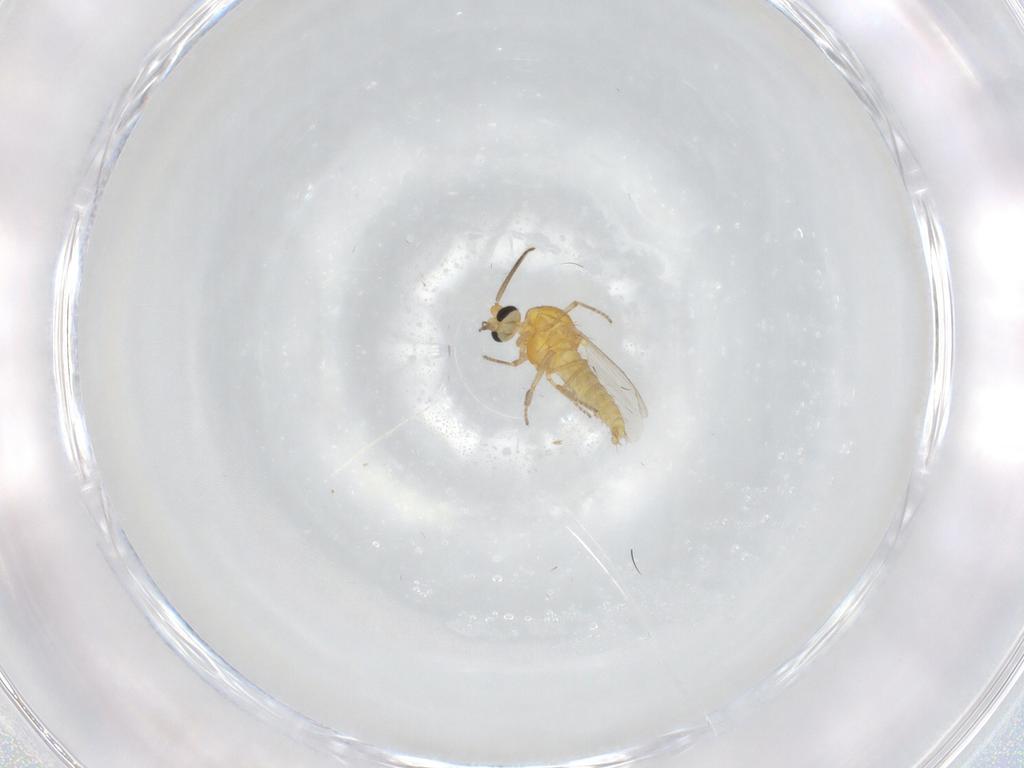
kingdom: Animalia
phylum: Arthropoda
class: Insecta
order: Diptera
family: Ceratopogonidae
